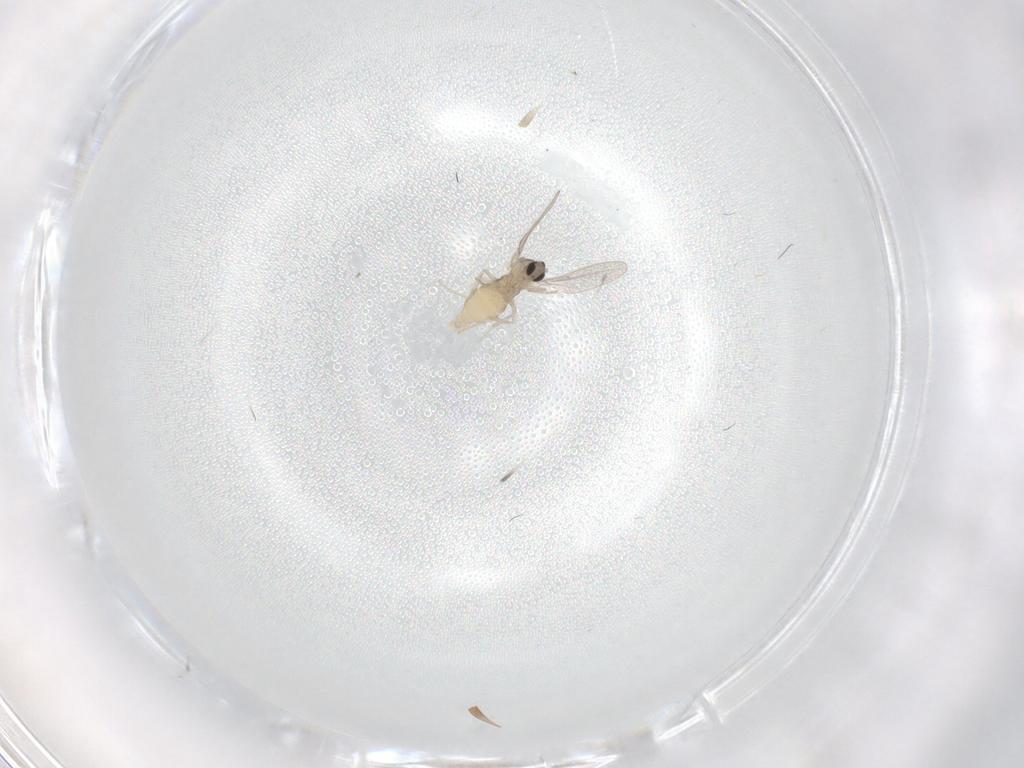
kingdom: Animalia
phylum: Arthropoda
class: Insecta
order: Diptera
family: Cecidomyiidae
